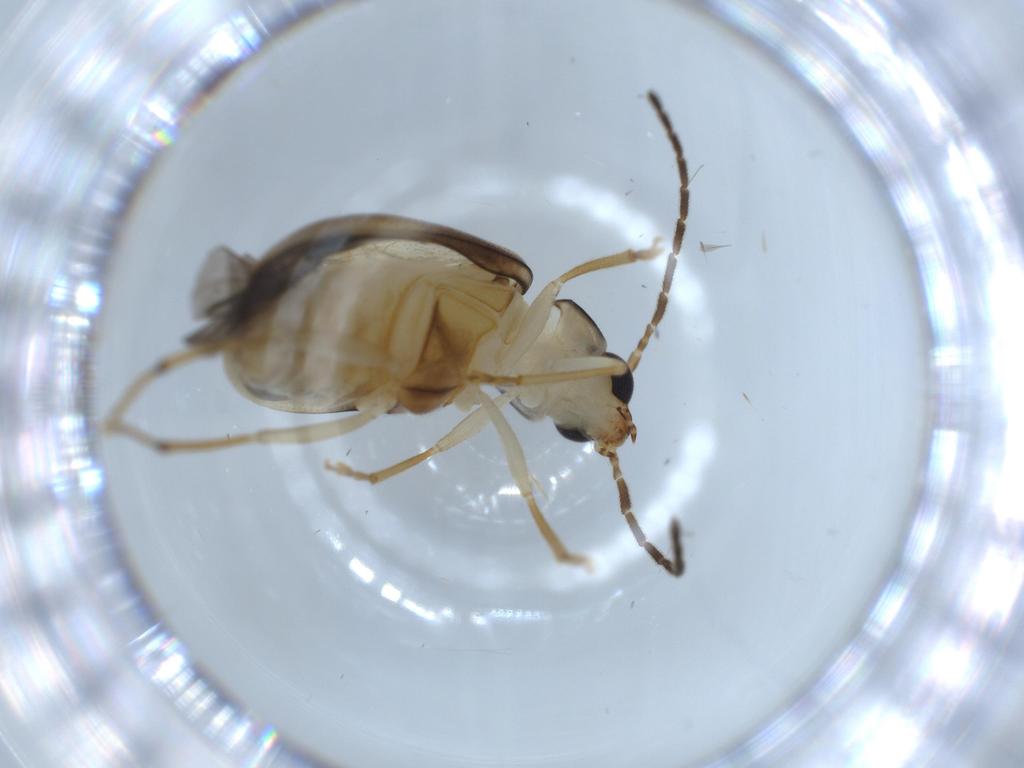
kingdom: Animalia
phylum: Arthropoda
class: Insecta
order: Coleoptera
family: Chrysomelidae
